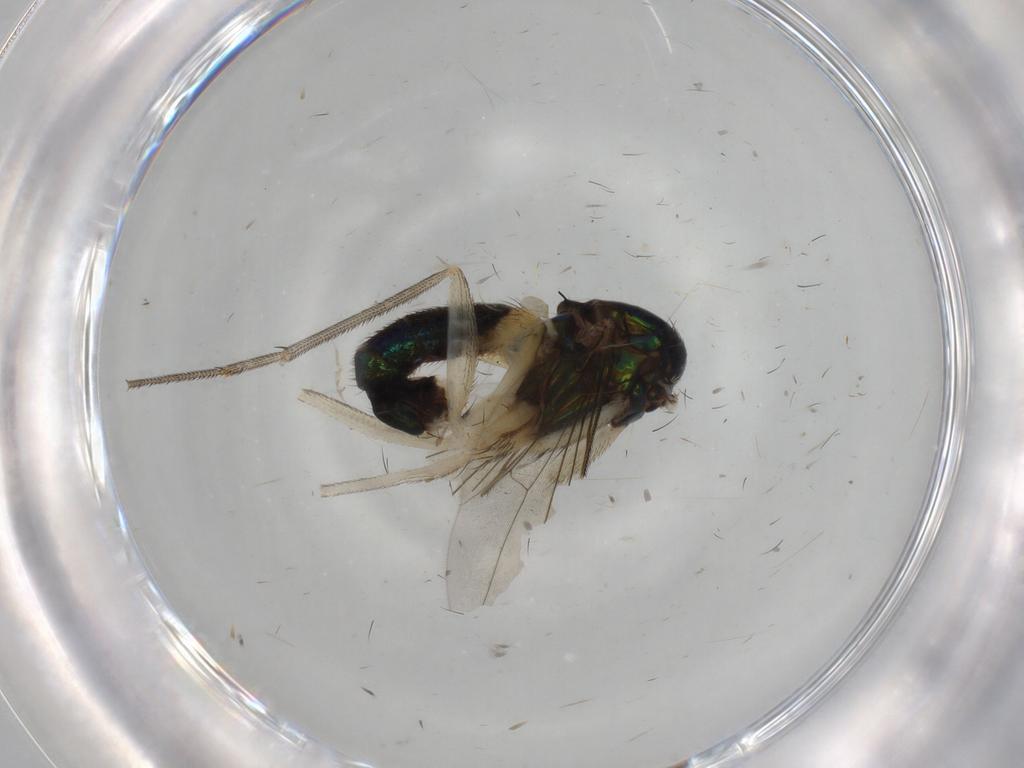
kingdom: Animalia
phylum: Arthropoda
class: Insecta
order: Diptera
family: Dolichopodidae
